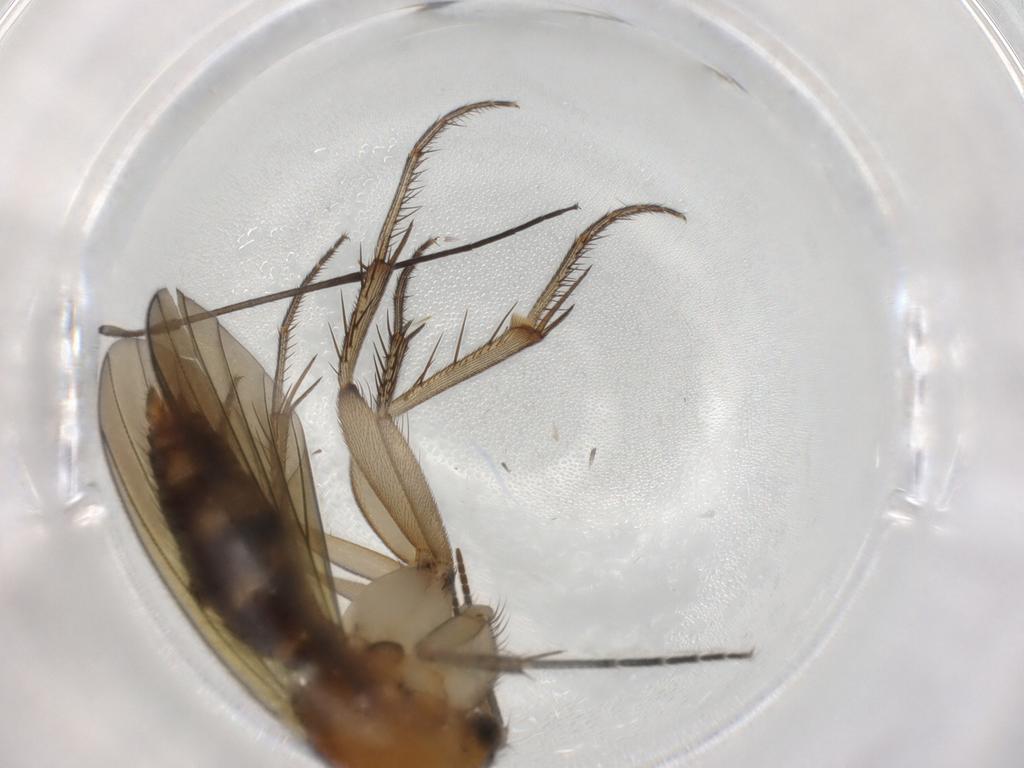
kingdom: Animalia
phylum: Arthropoda
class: Insecta
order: Diptera
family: Mycetophilidae
